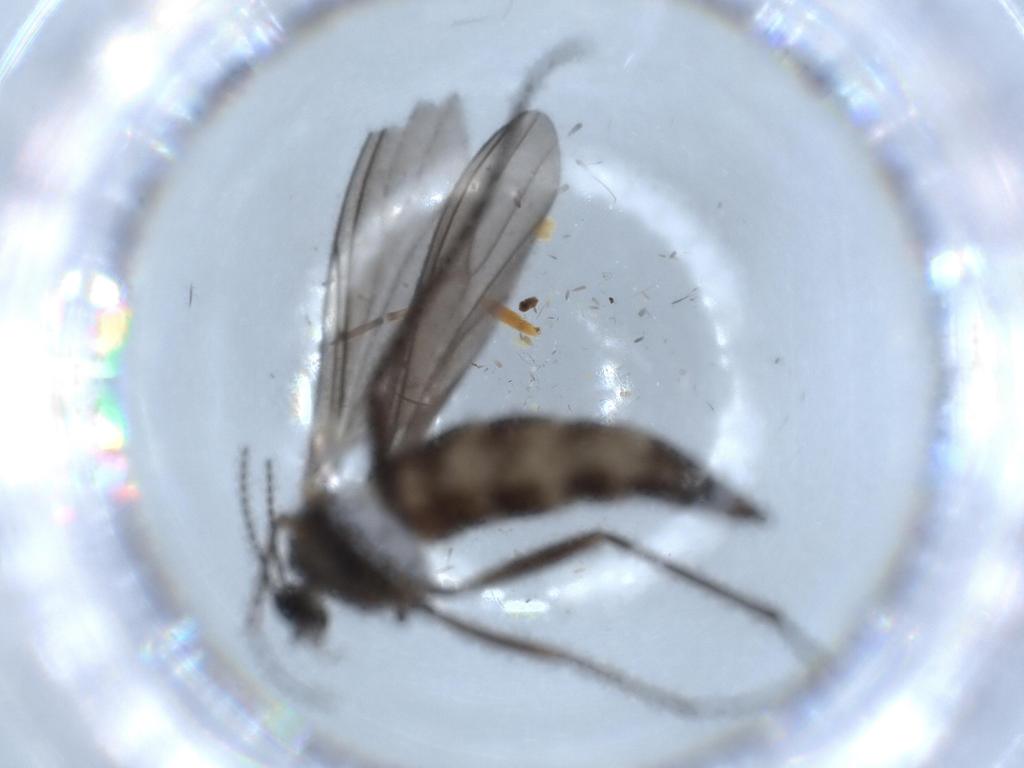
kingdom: Animalia
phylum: Arthropoda
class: Insecta
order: Diptera
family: Sciaridae
